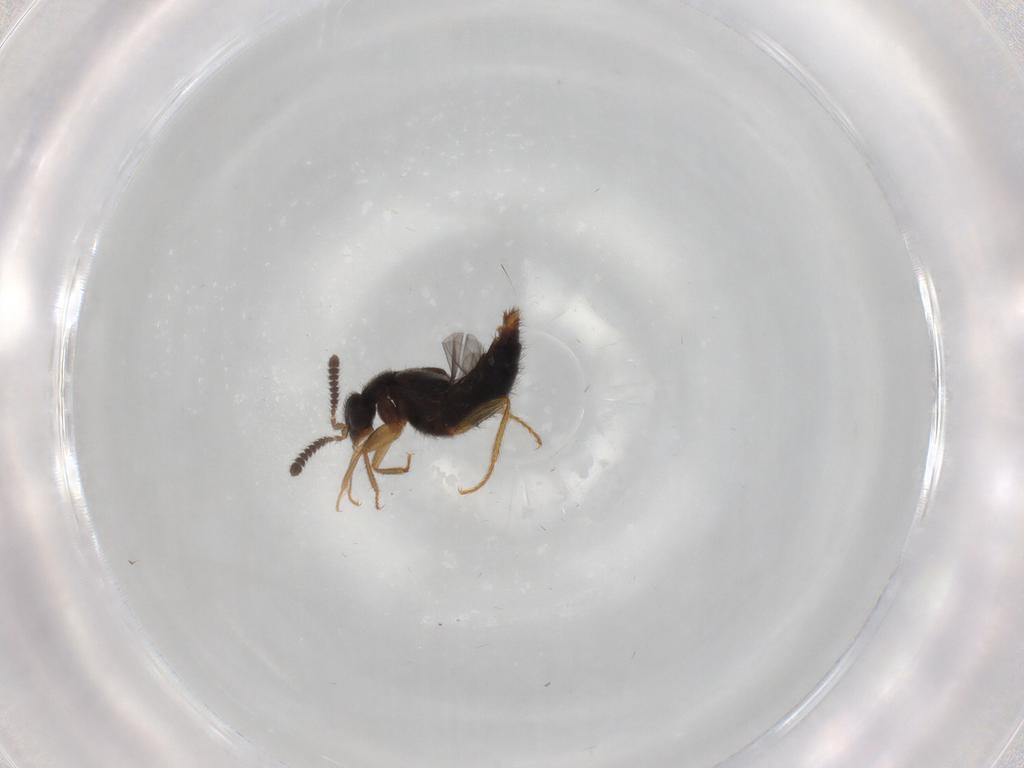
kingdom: Animalia
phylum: Arthropoda
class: Insecta
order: Coleoptera
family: Staphylinidae
